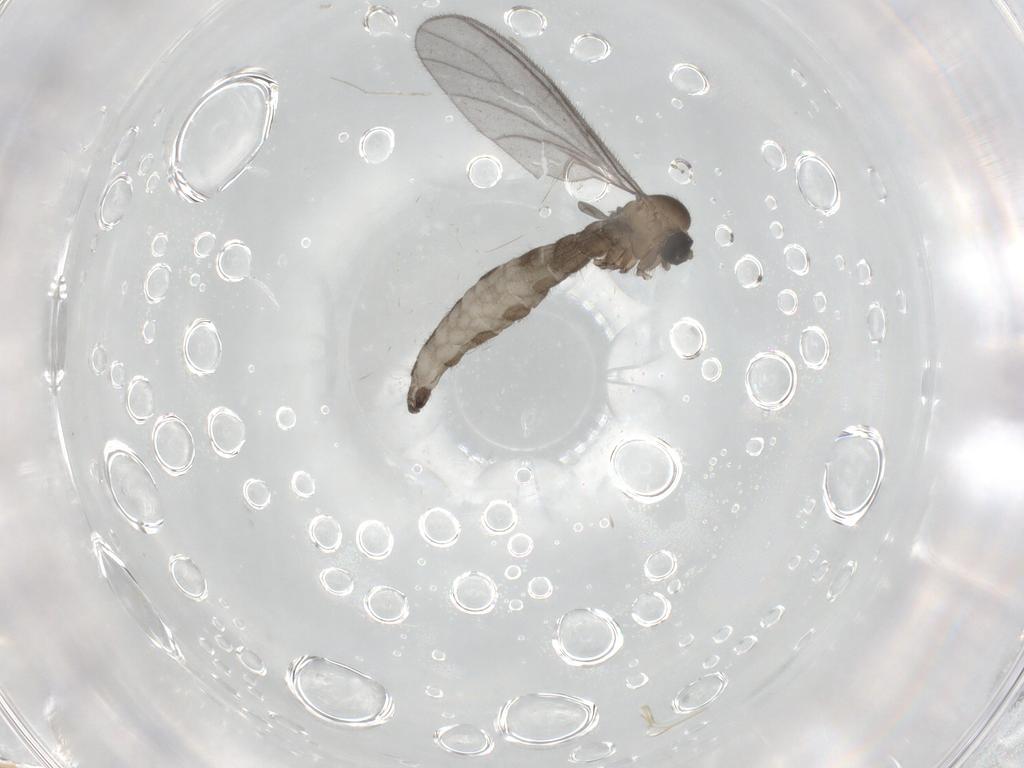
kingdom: Animalia
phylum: Arthropoda
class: Insecta
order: Diptera
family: Sciaridae
